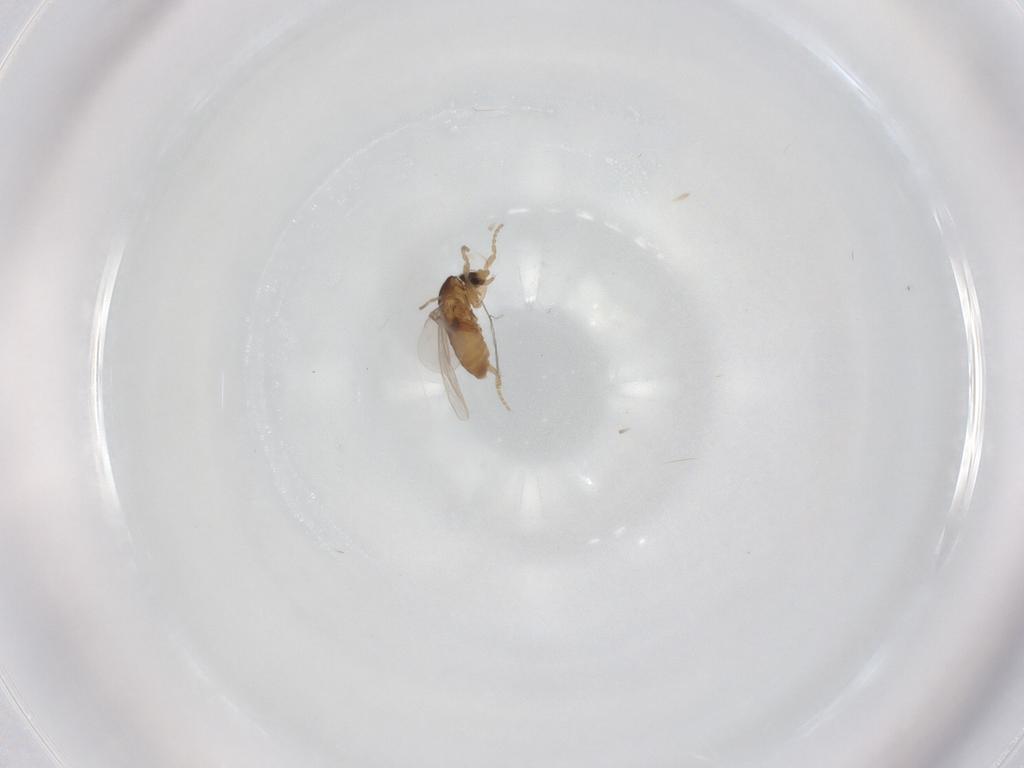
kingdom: Animalia
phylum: Arthropoda
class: Insecta
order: Diptera
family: Cecidomyiidae
